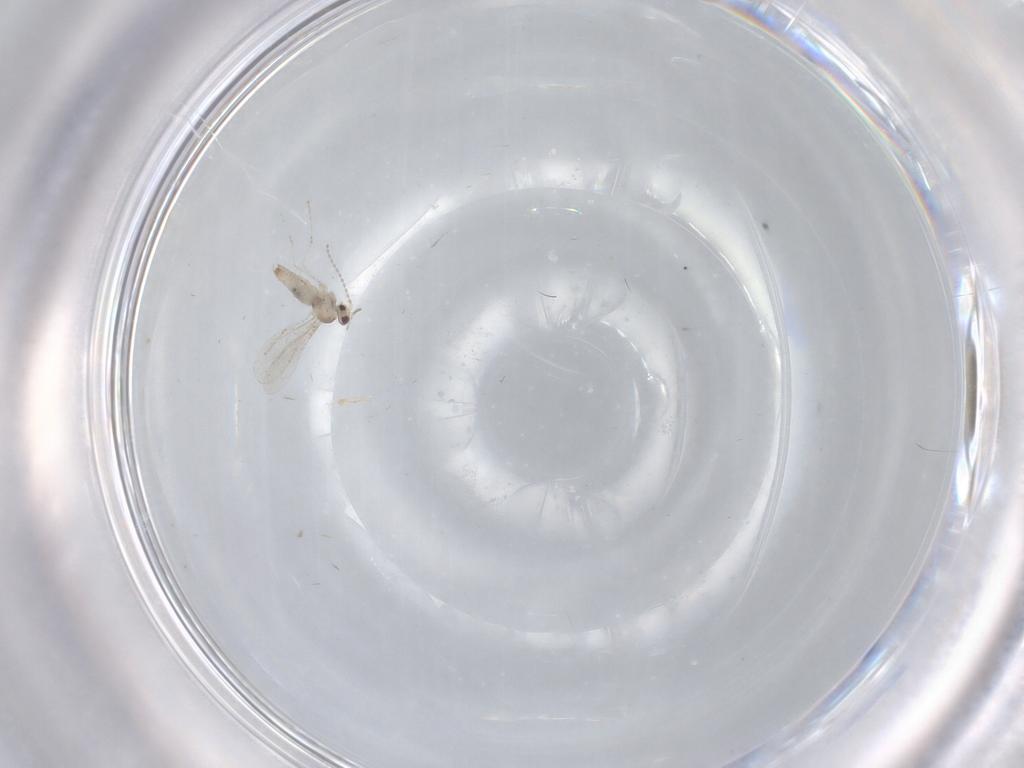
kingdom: Animalia
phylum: Arthropoda
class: Insecta
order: Diptera
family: Cecidomyiidae
